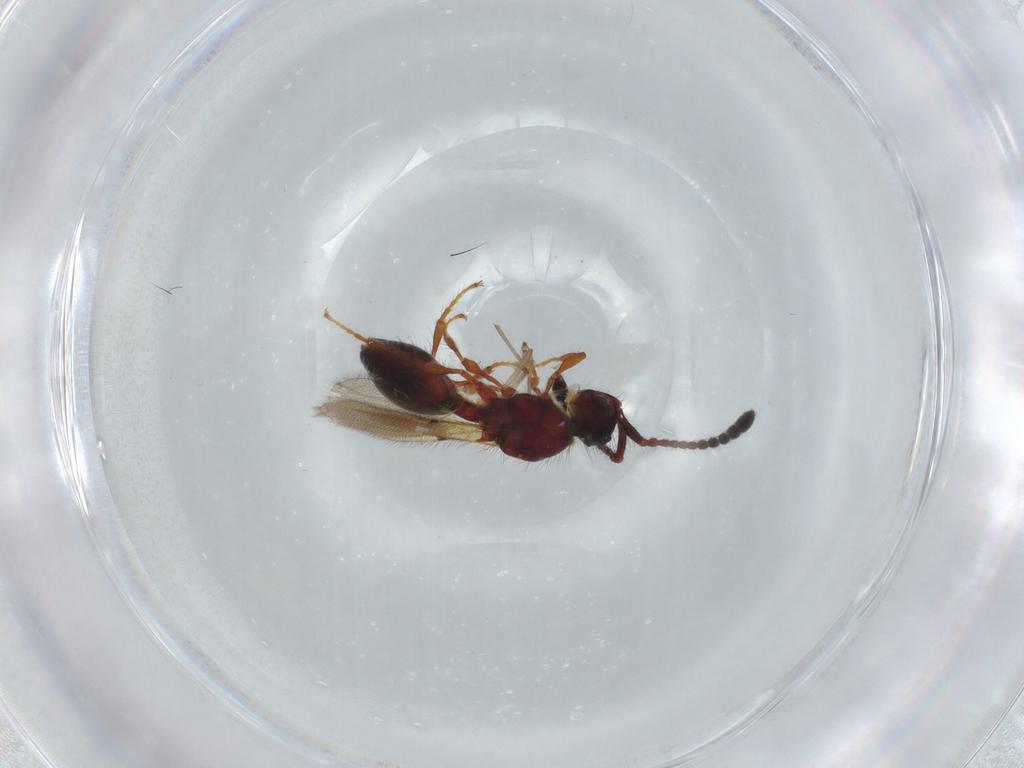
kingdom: Animalia
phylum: Arthropoda
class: Insecta
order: Hymenoptera
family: Diapriidae
